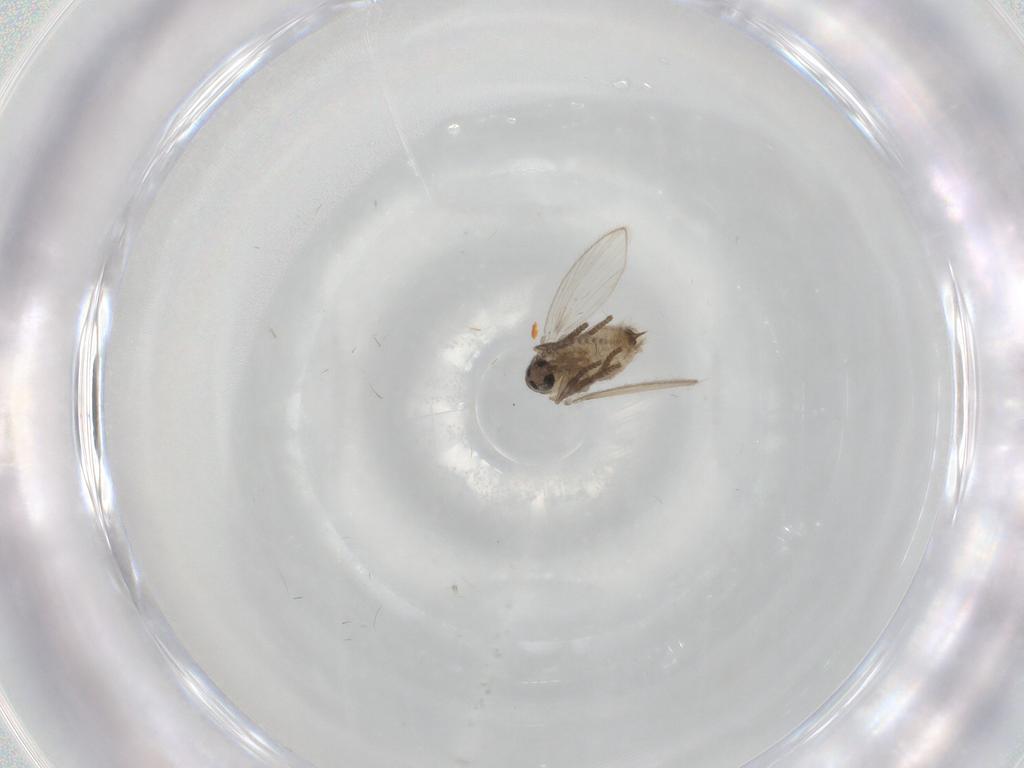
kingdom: Animalia
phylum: Arthropoda
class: Insecta
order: Diptera
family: Psychodidae
